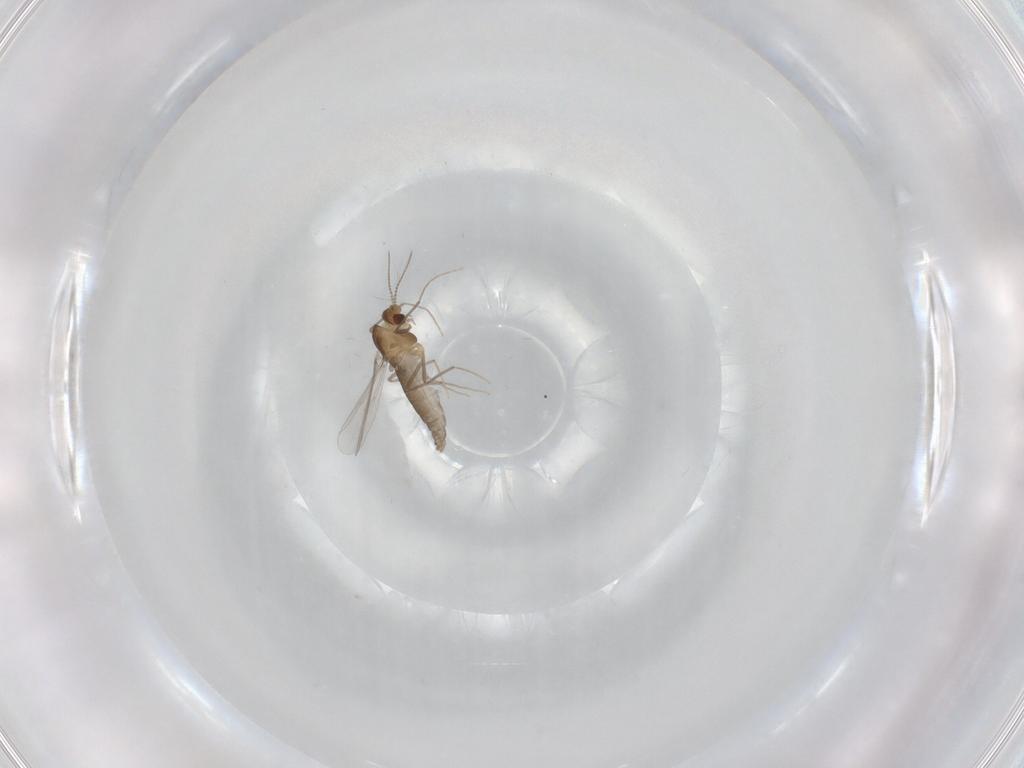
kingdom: Animalia
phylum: Arthropoda
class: Insecta
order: Diptera
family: Chironomidae
